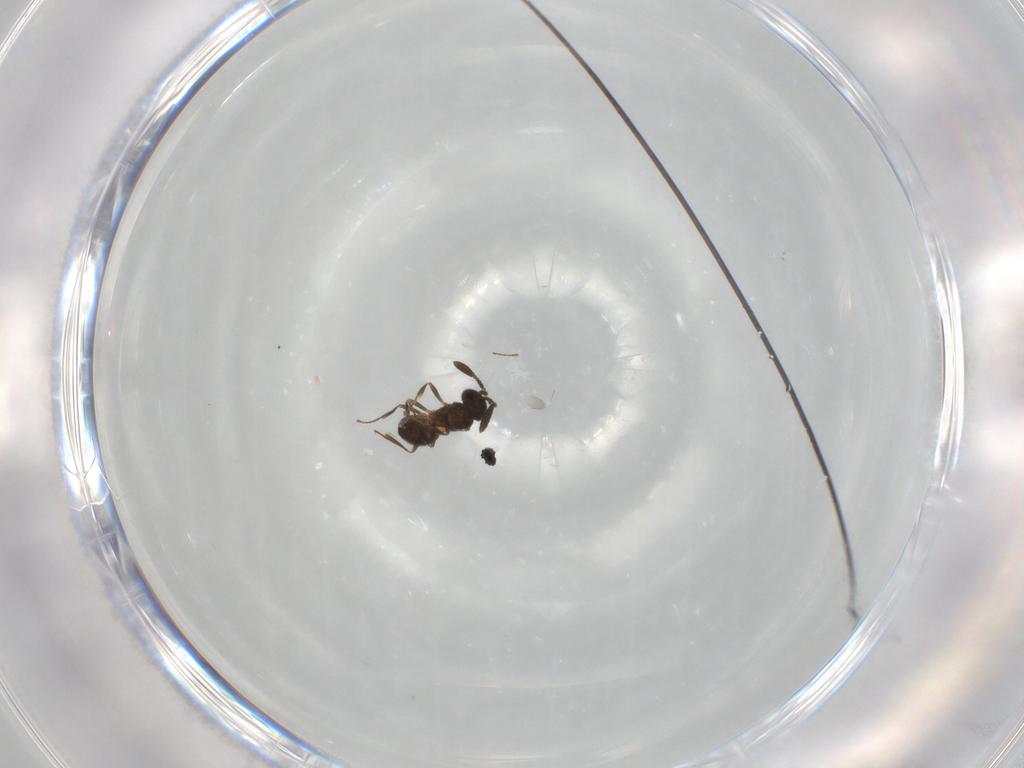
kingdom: Animalia
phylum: Arthropoda
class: Insecta
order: Hymenoptera
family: Scelionidae
